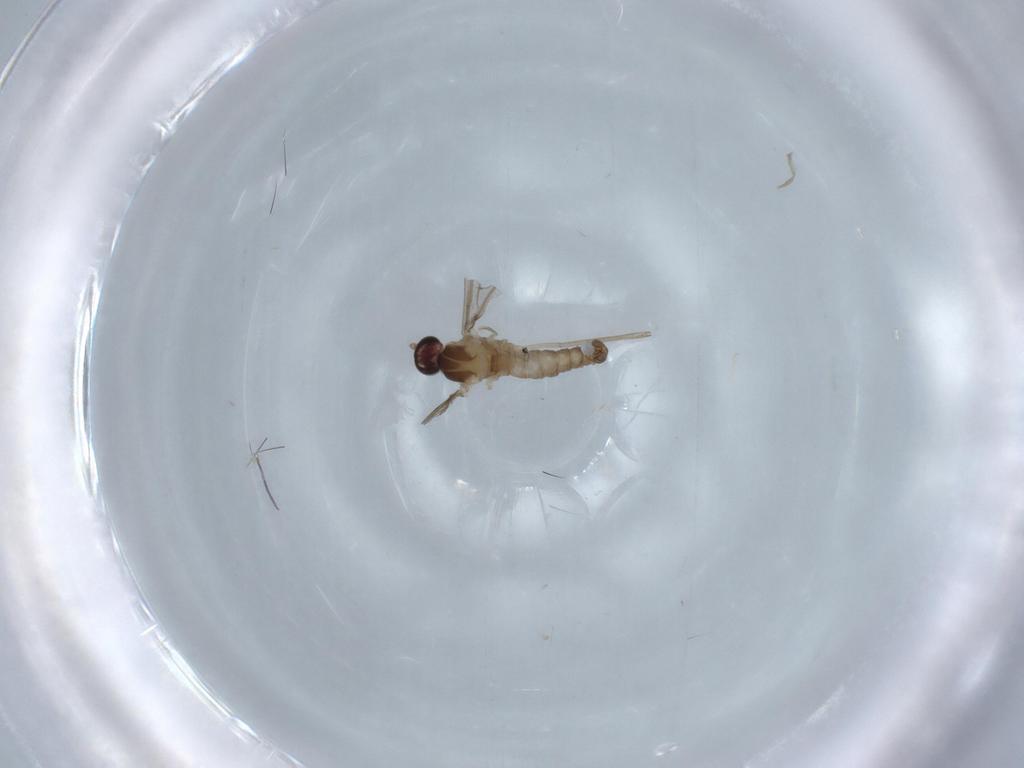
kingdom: Animalia
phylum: Arthropoda
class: Insecta
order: Diptera
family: Cecidomyiidae
